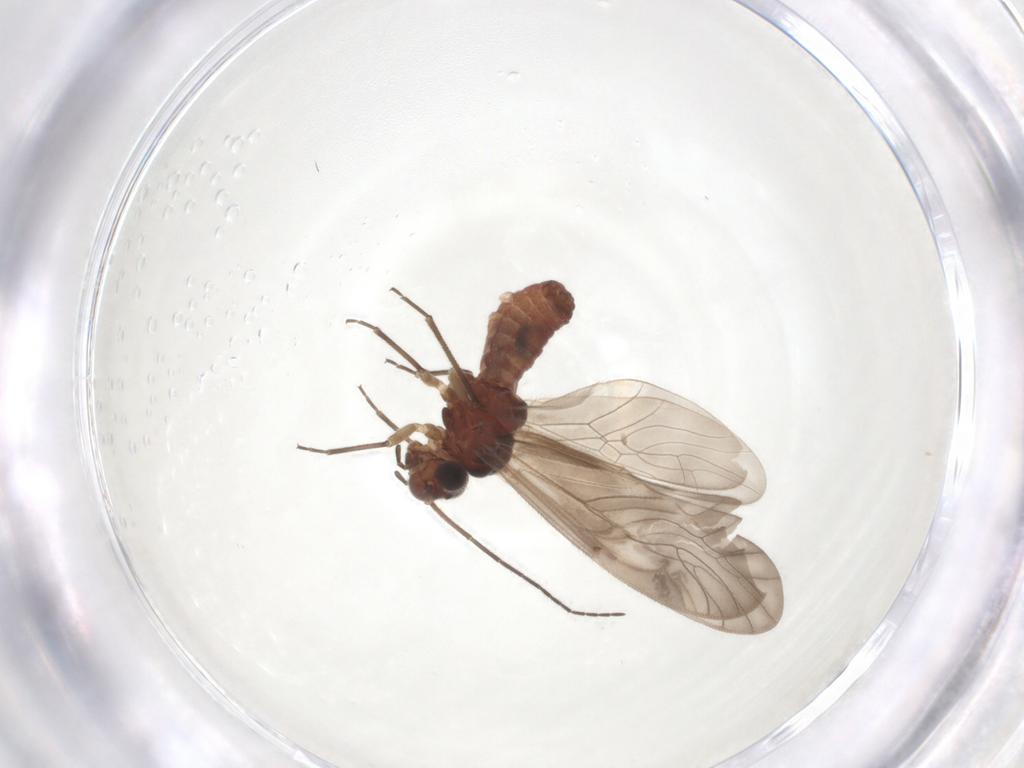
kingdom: Animalia
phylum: Arthropoda
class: Insecta
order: Psocodea
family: Caeciliusidae
